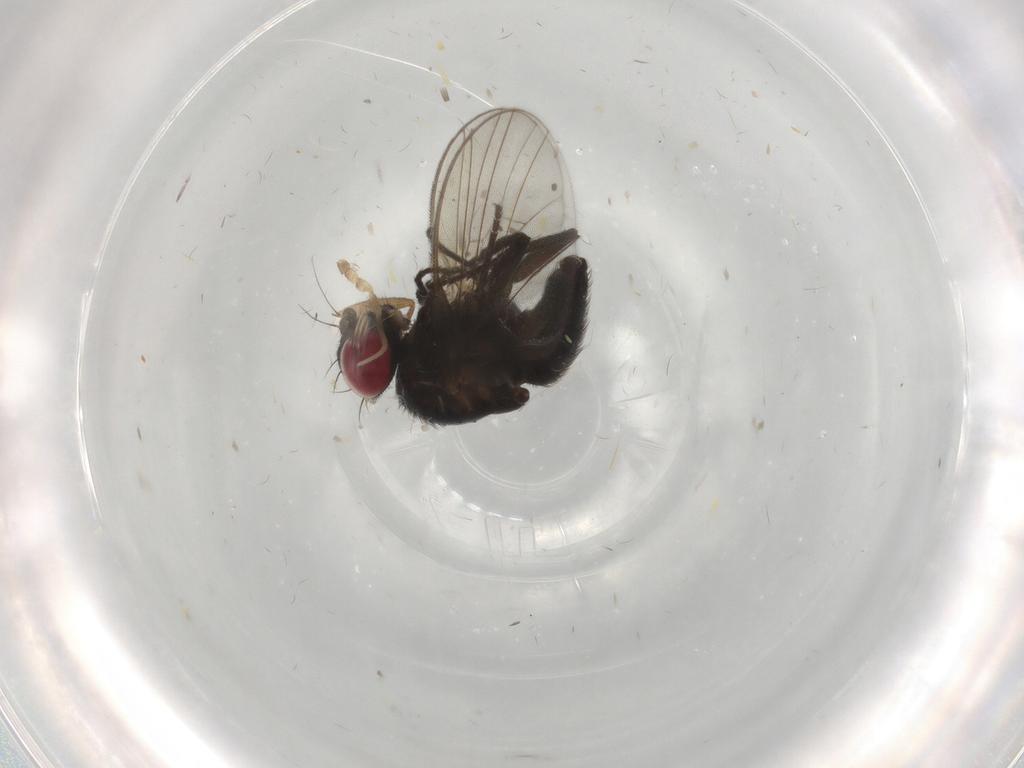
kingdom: Animalia
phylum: Arthropoda
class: Insecta
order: Diptera
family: Agromyzidae
